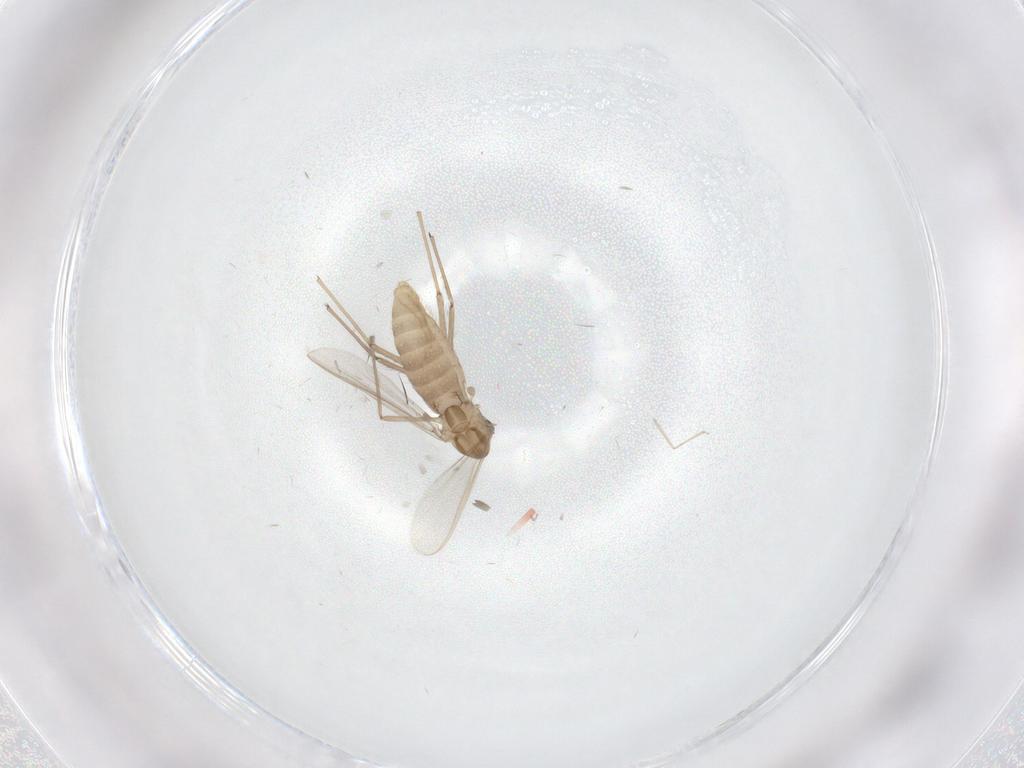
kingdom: Animalia
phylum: Arthropoda
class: Insecta
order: Diptera
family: Chironomidae
